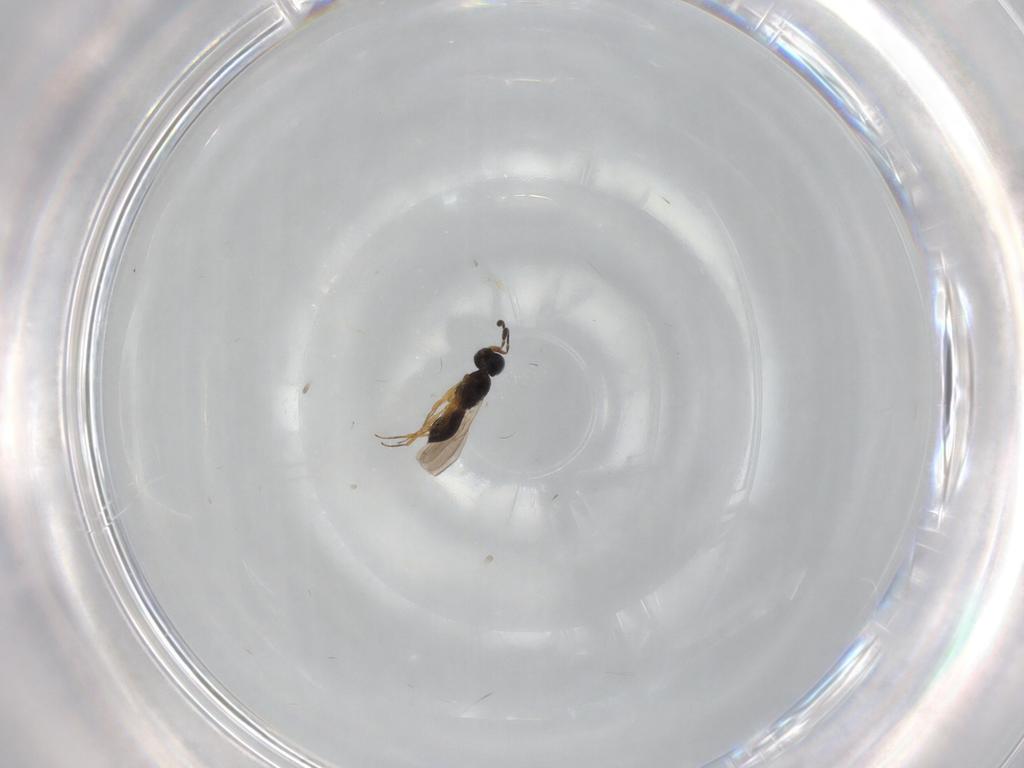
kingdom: Animalia
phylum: Arthropoda
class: Insecta
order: Hymenoptera
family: Scelionidae
